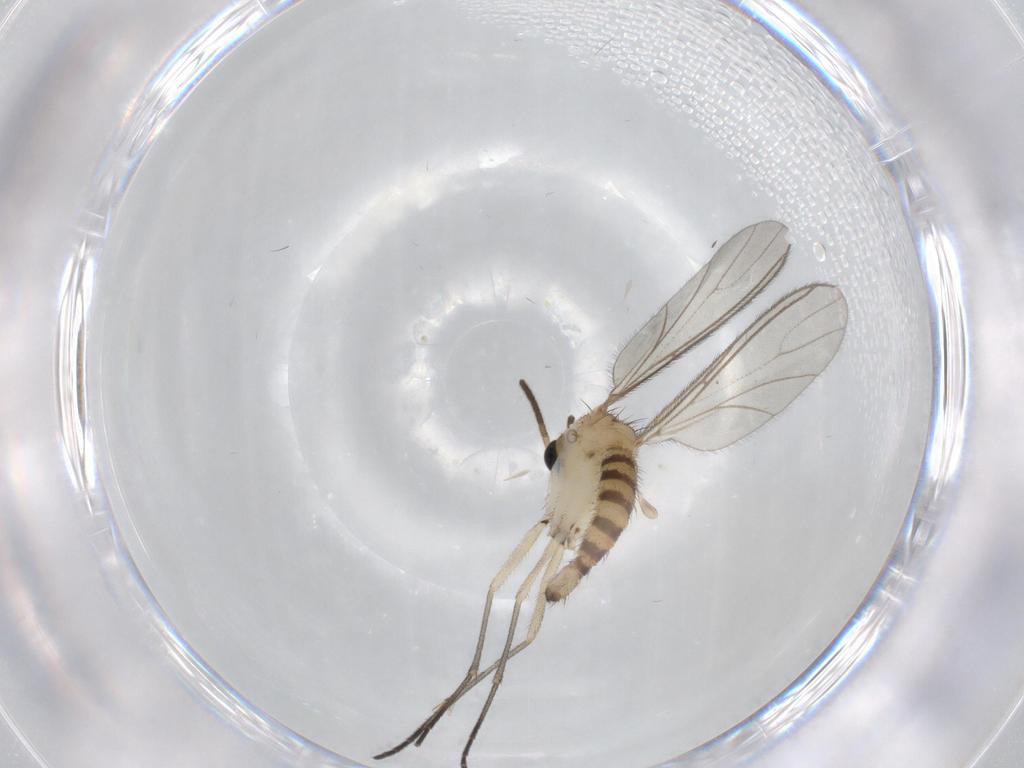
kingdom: Animalia
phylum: Arthropoda
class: Insecta
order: Diptera
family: Sciaridae
